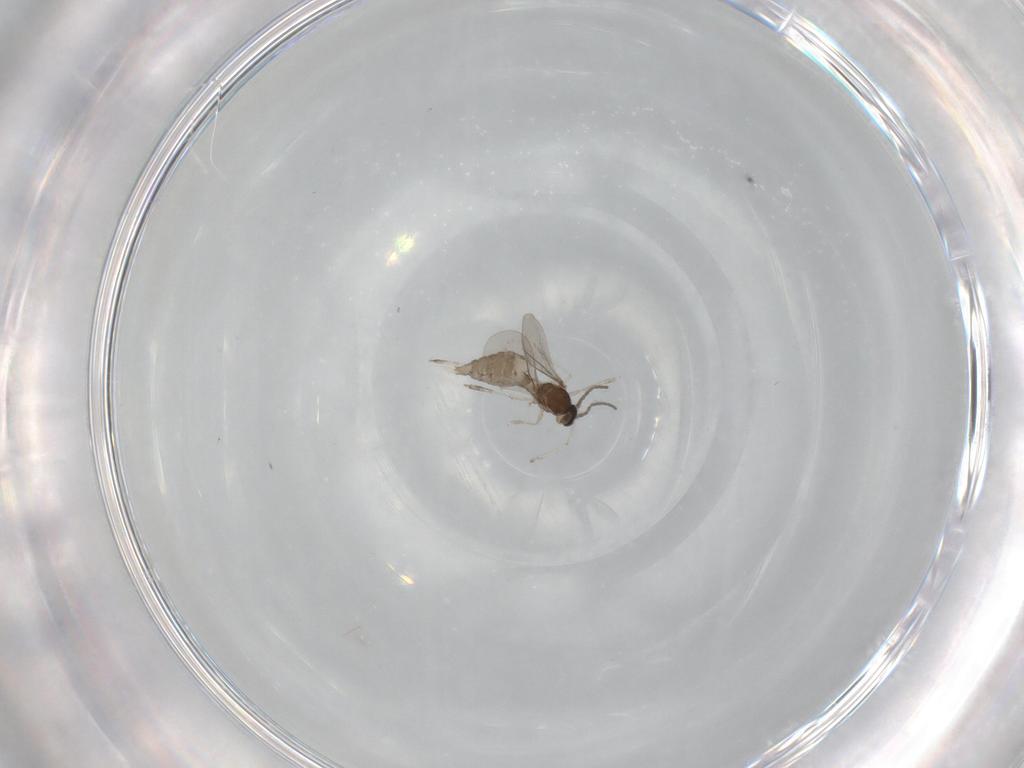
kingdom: Animalia
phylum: Arthropoda
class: Insecta
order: Diptera
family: Cecidomyiidae
